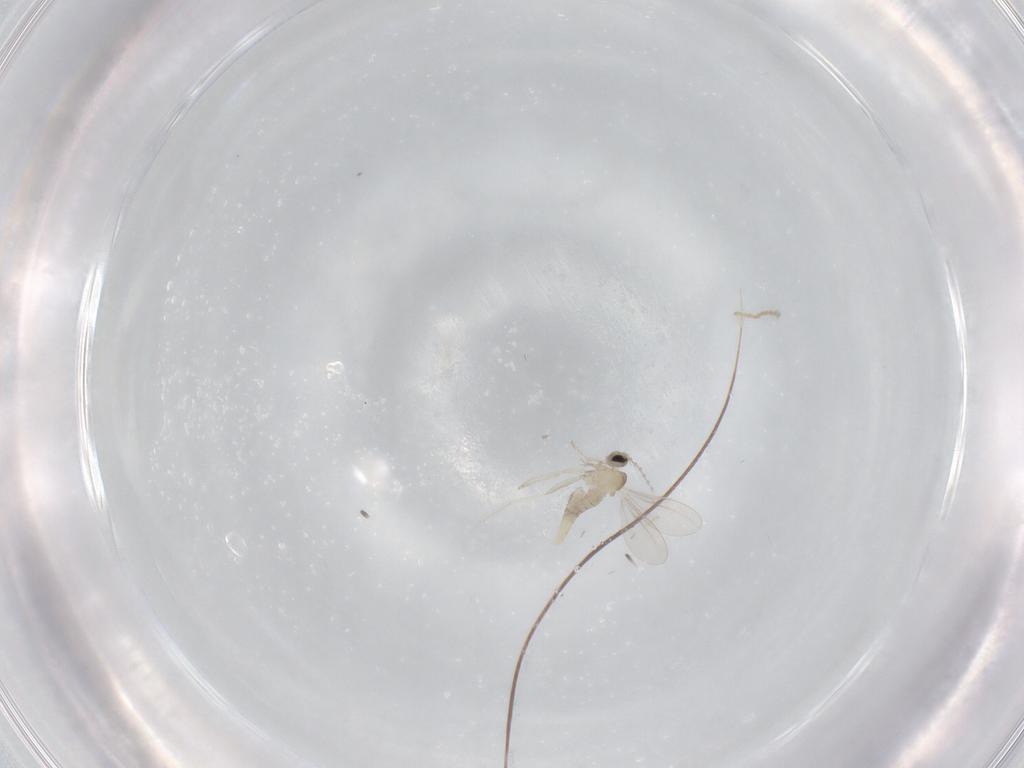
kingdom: Animalia
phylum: Arthropoda
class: Insecta
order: Diptera
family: Cecidomyiidae
